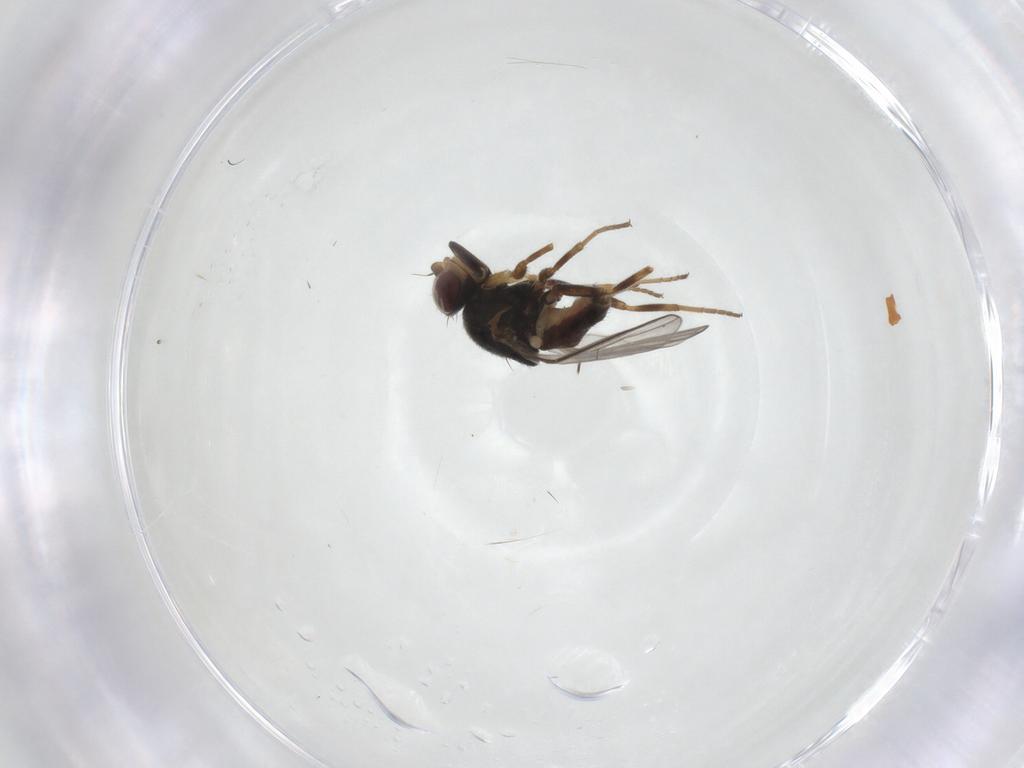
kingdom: Animalia
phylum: Arthropoda
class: Insecta
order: Diptera
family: Chloropidae
